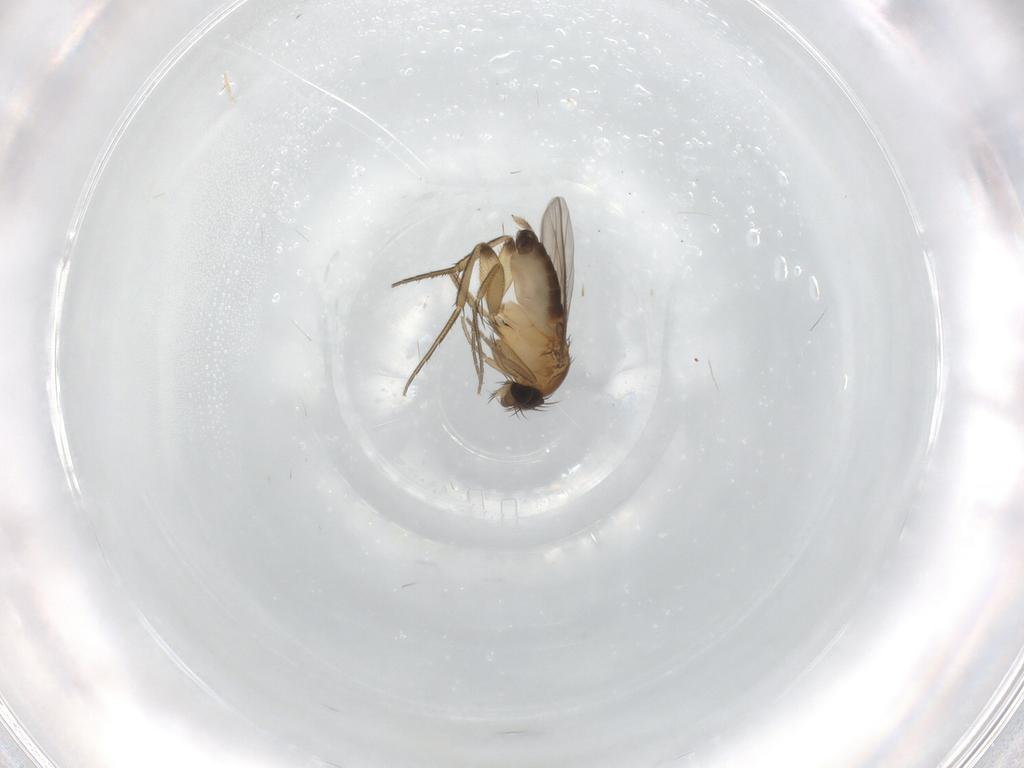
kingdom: Animalia
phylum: Arthropoda
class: Insecta
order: Diptera
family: Phoridae
